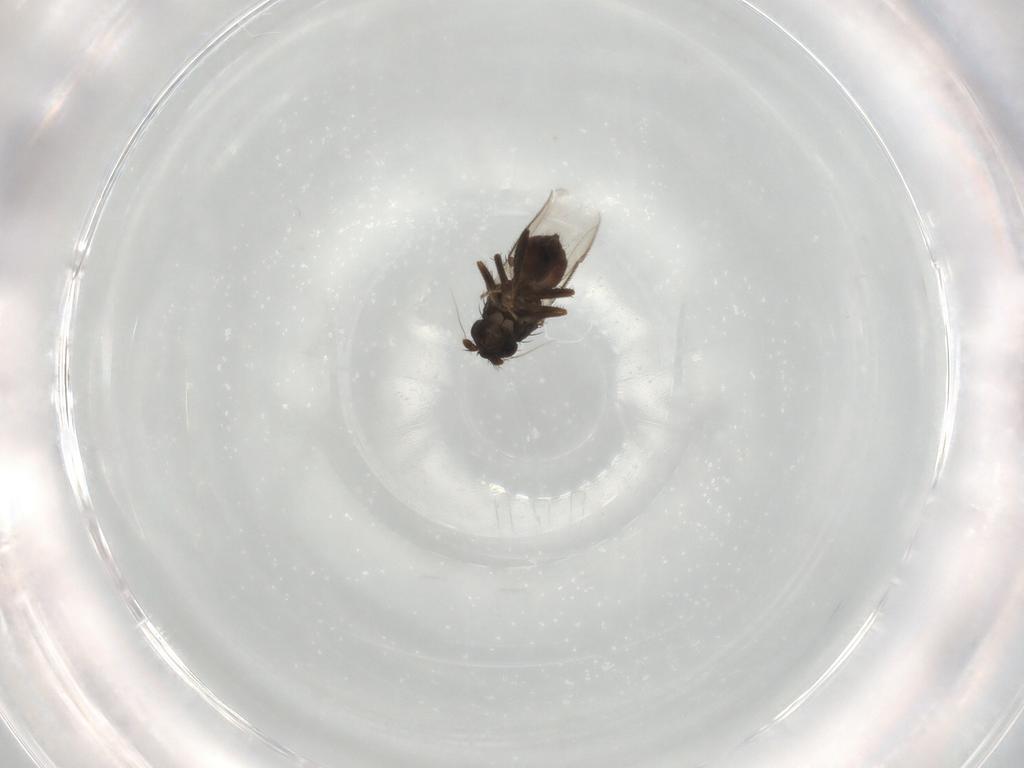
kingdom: Animalia
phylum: Arthropoda
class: Insecta
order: Diptera
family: Sphaeroceridae
